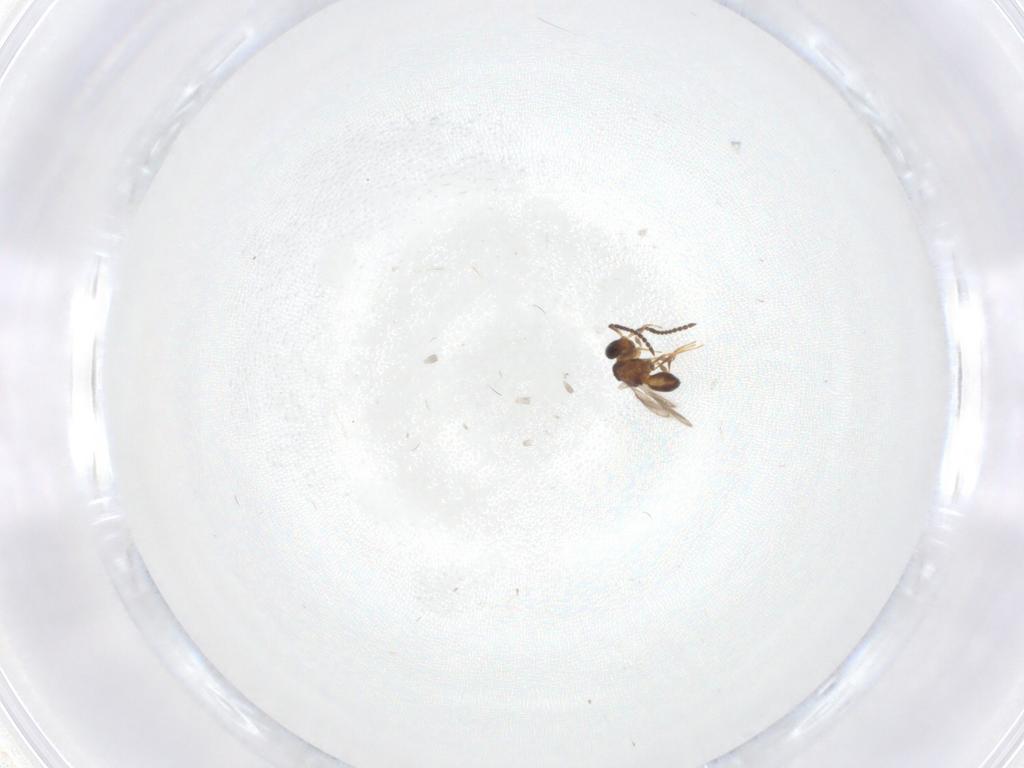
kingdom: Animalia
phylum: Arthropoda
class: Insecta
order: Hymenoptera
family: Scelionidae
